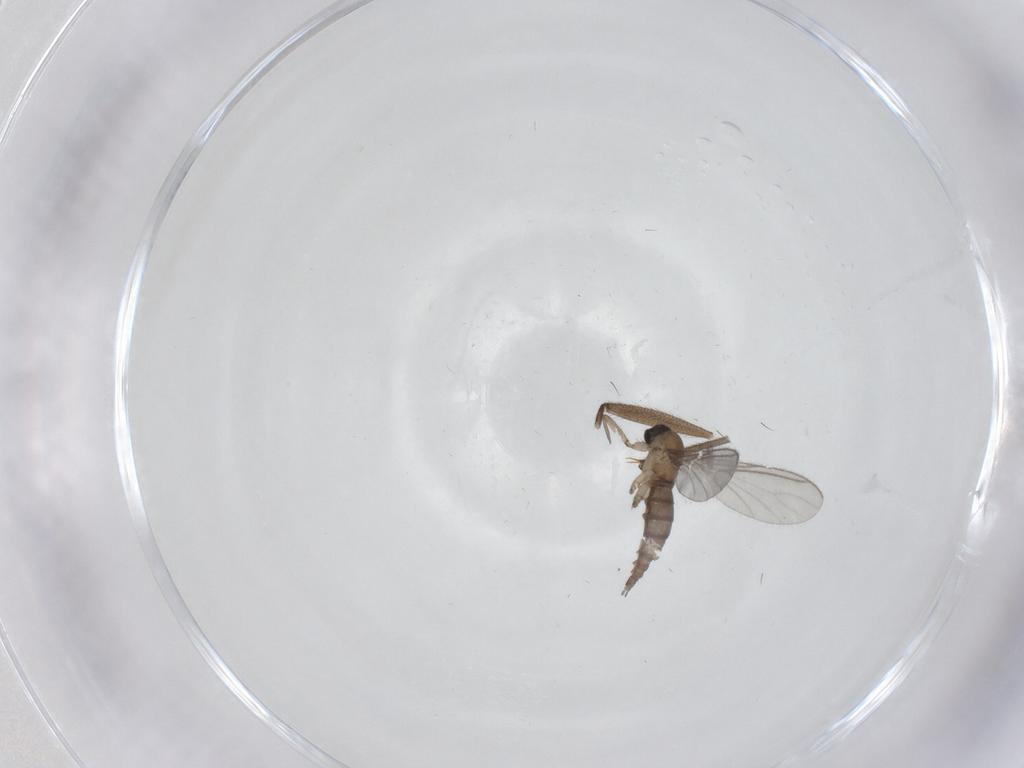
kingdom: Animalia
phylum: Arthropoda
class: Insecta
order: Diptera
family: Sciaridae
